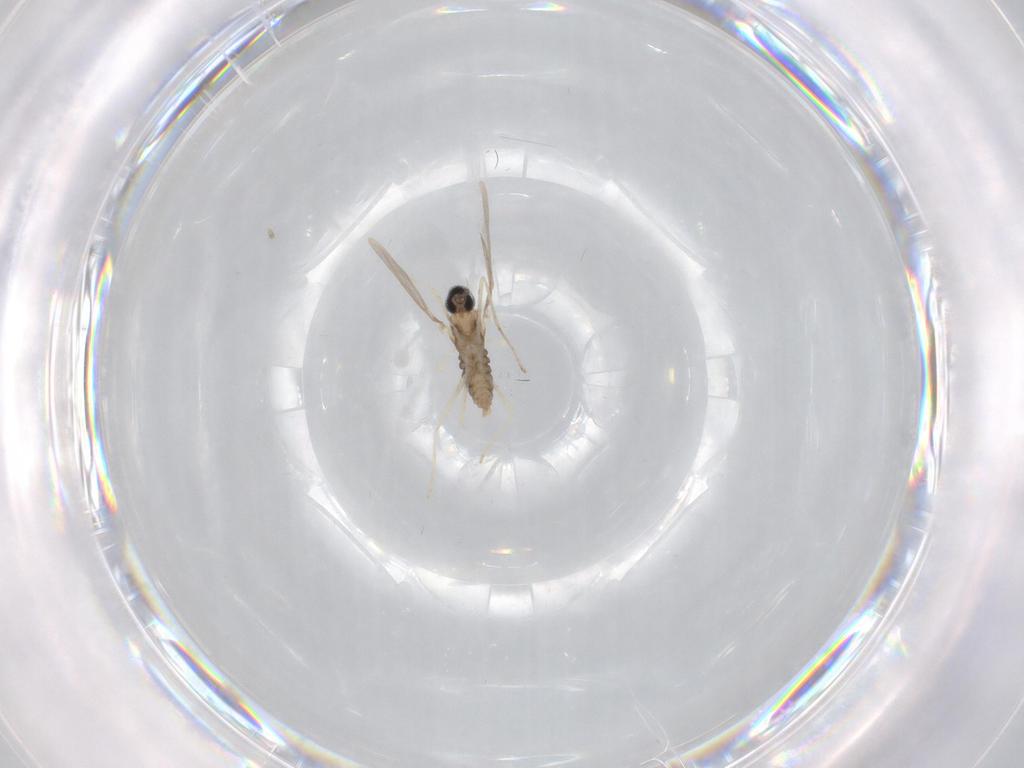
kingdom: Animalia
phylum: Arthropoda
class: Insecta
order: Diptera
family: Cecidomyiidae
